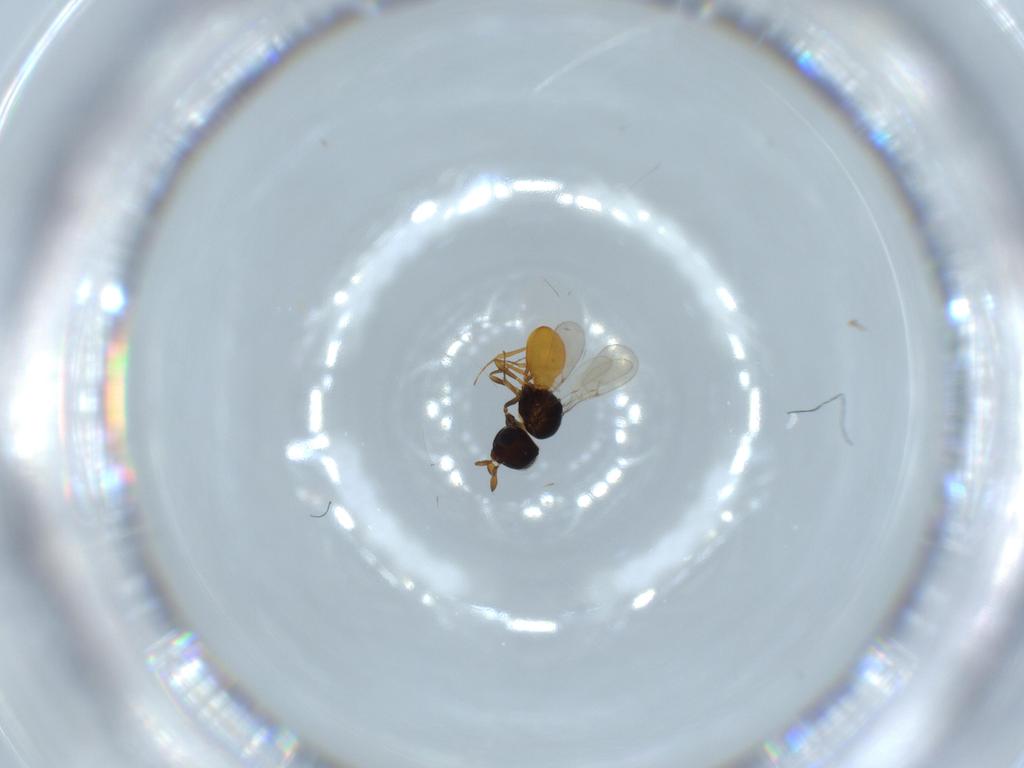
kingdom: Animalia
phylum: Arthropoda
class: Insecta
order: Hymenoptera
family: Scelionidae
